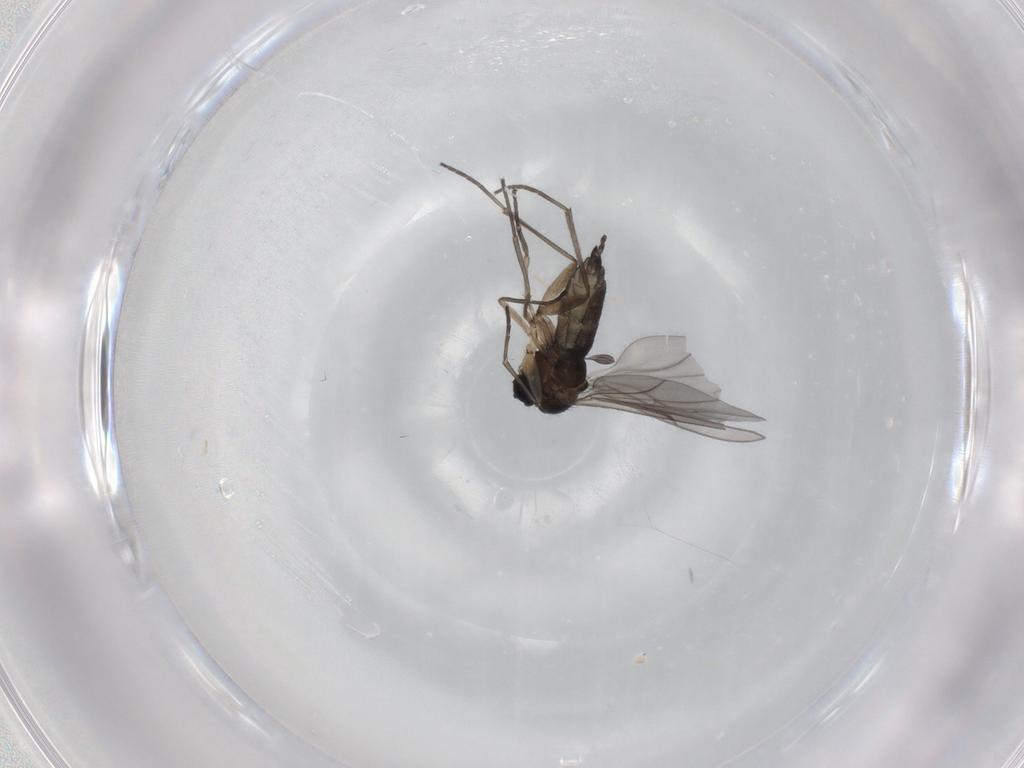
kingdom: Animalia
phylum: Arthropoda
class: Insecta
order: Diptera
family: Sciaridae
